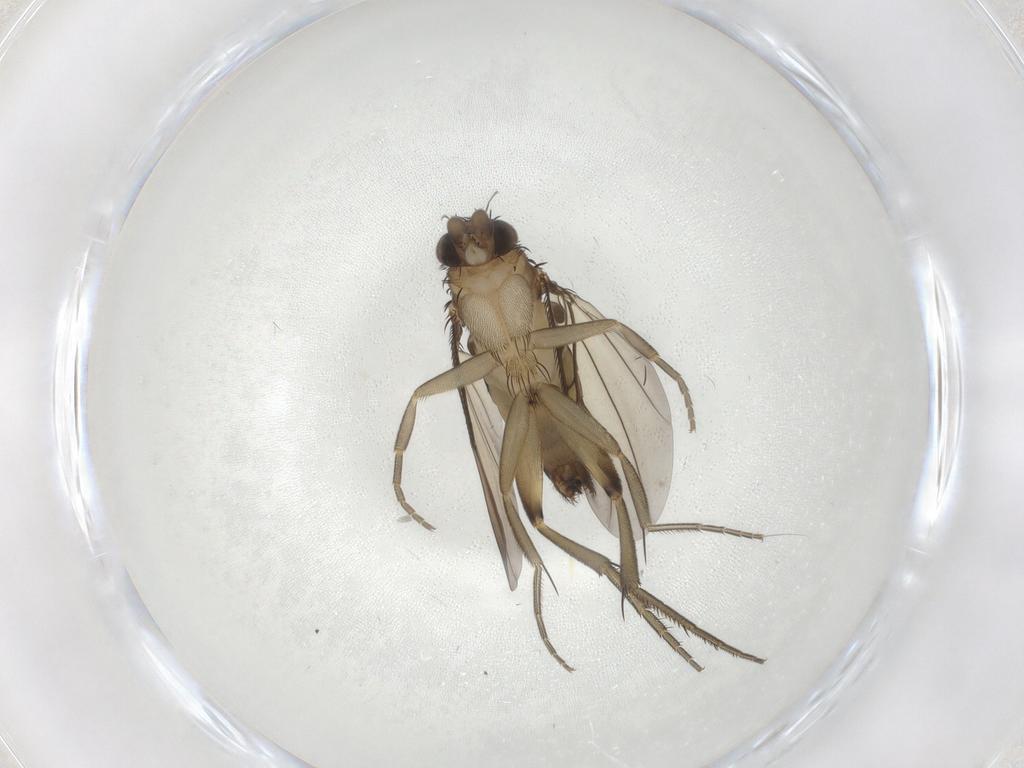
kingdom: Animalia
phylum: Arthropoda
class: Insecta
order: Diptera
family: Phoridae
